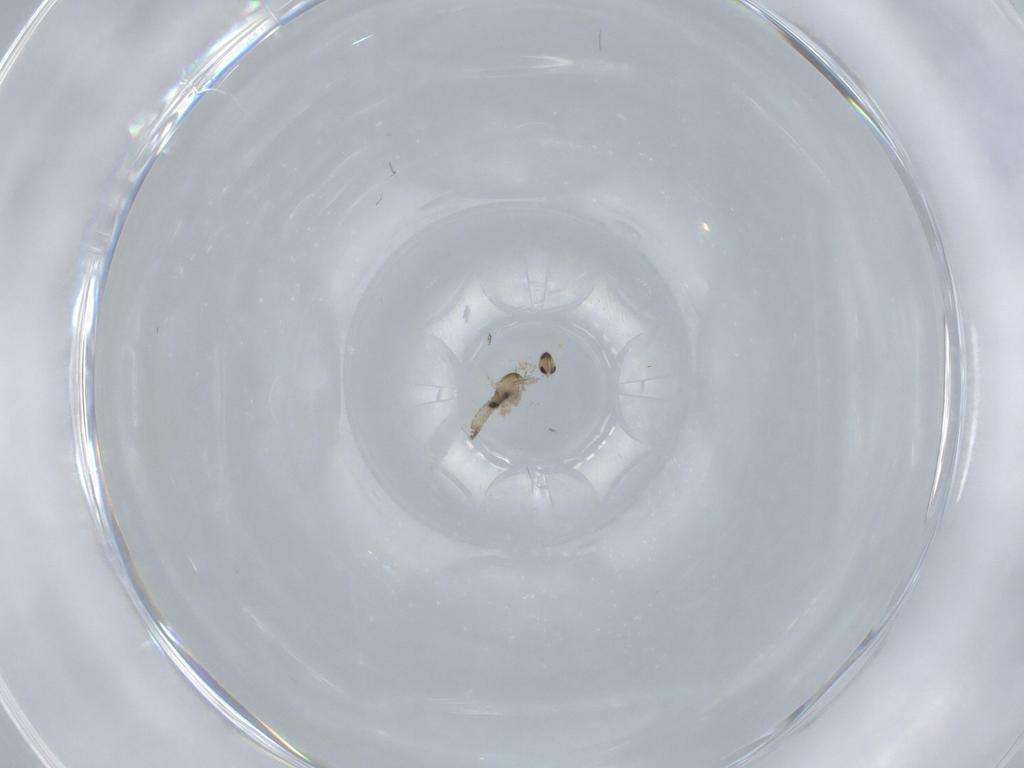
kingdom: Animalia
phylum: Arthropoda
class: Insecta
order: Diptera
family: Cecidomyiidae
